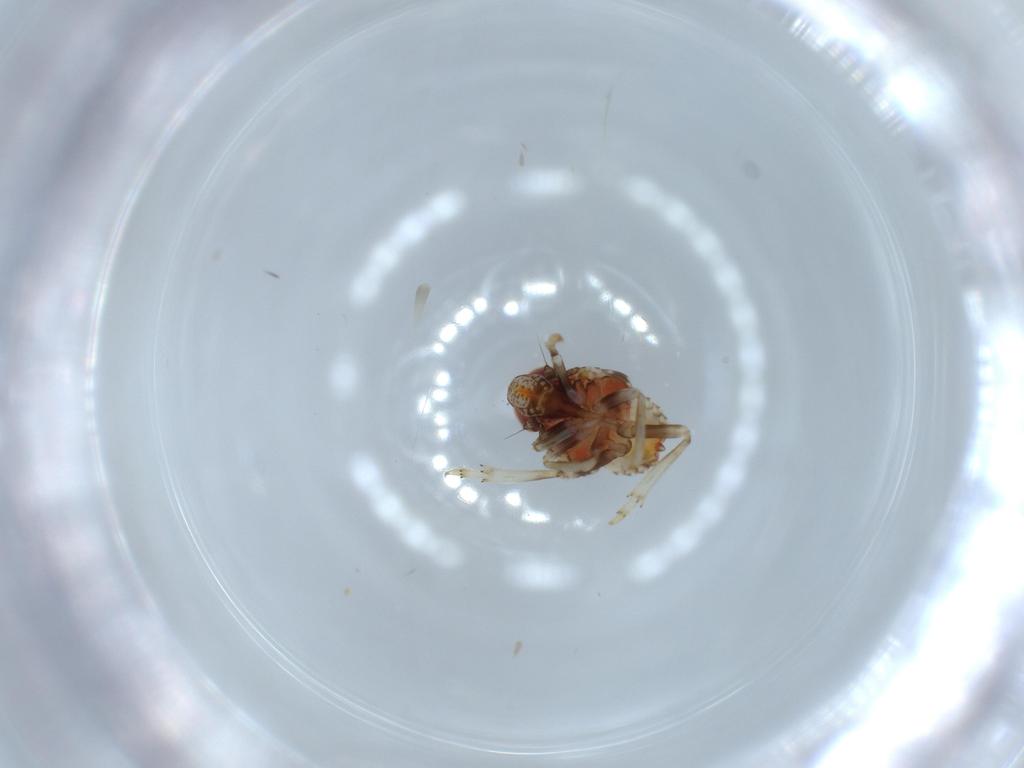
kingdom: Animalia
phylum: Arthropoda
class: Insecta
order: Hemiptera
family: Issidae
